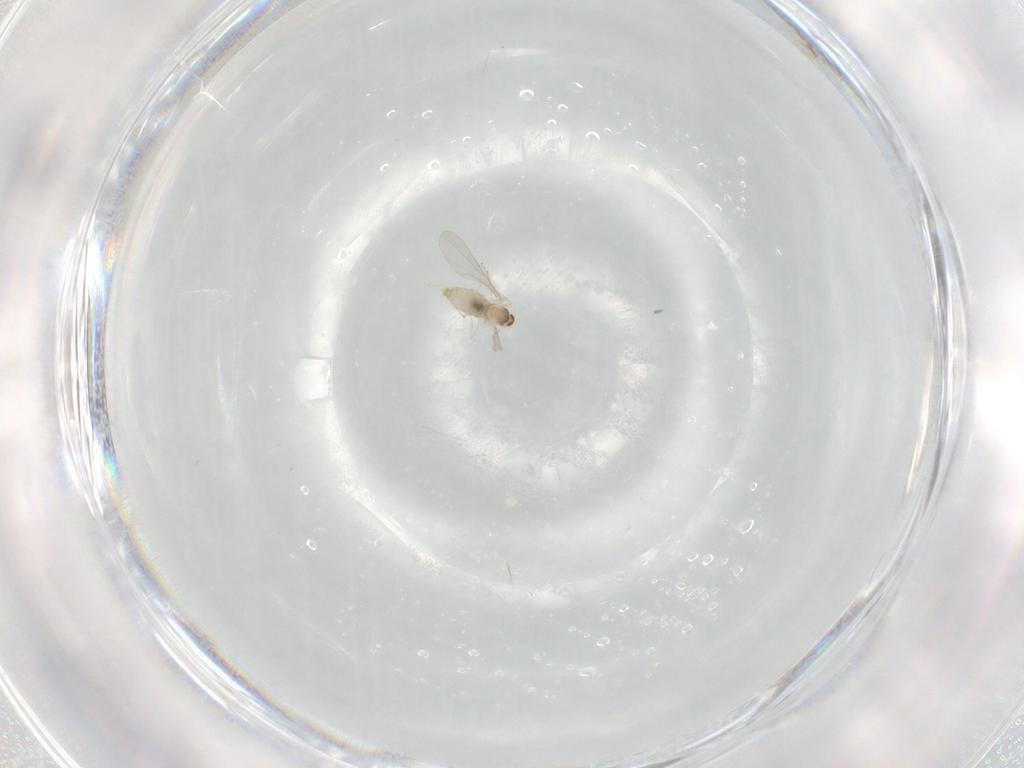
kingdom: Animalia
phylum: Arthropoda
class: Insecta
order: Diptera
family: Cecidomyiidae
